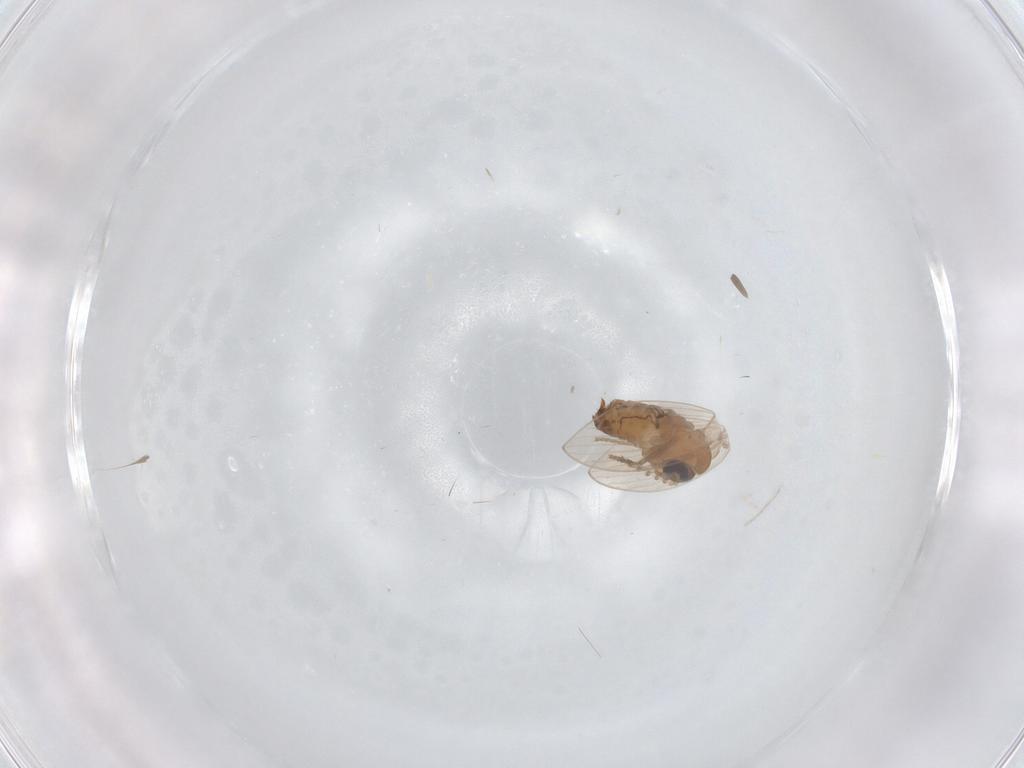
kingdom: Animalia
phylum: Arthropoda
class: Insecta
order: Diptera
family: Psychodidae
